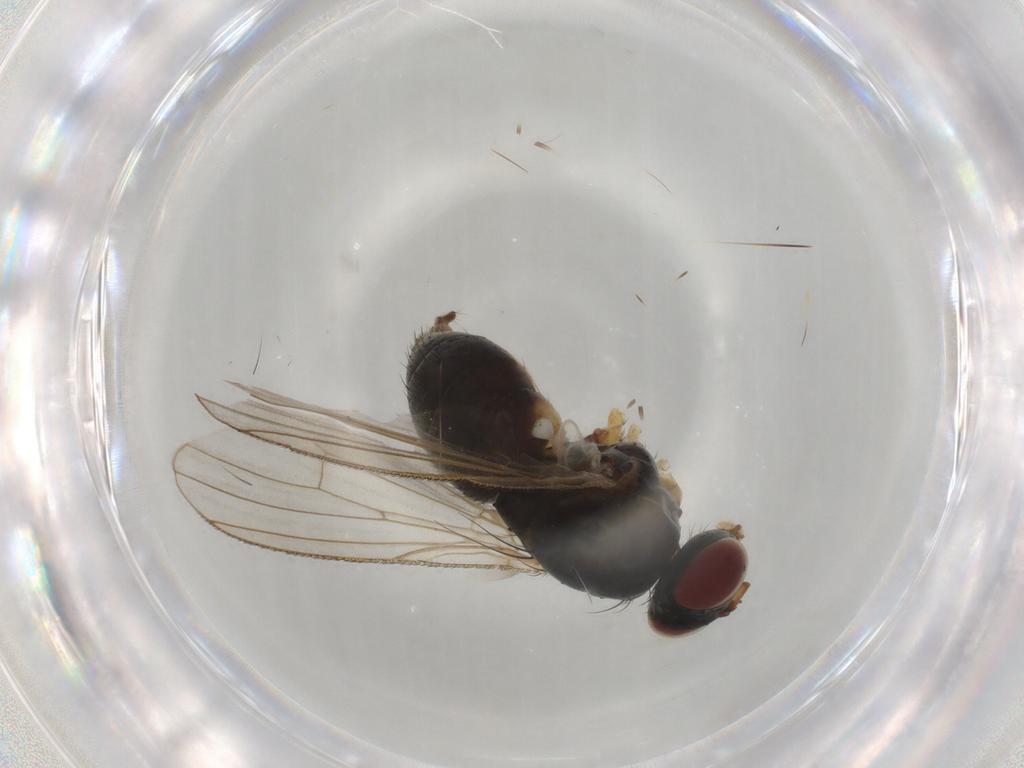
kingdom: Animalia
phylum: Arthropoda
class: Insecta
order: Diptera
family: Muscidae
